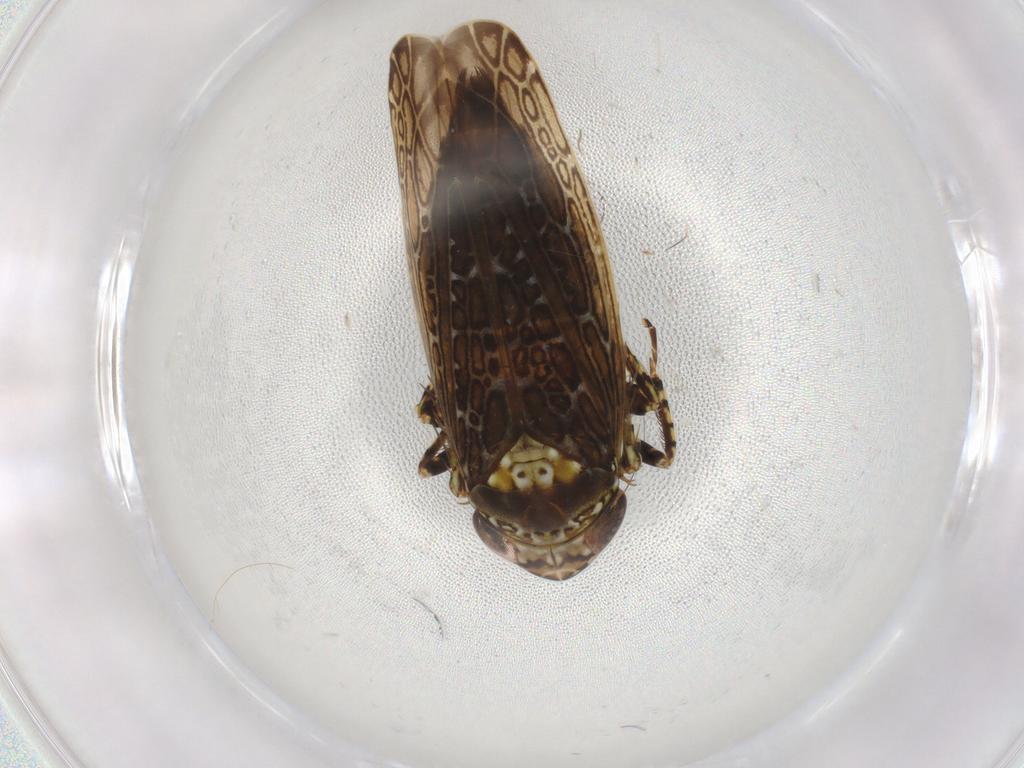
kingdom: Animalia
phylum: Arthropoda
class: Insecta
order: Hemiptera
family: Cicadellidae
